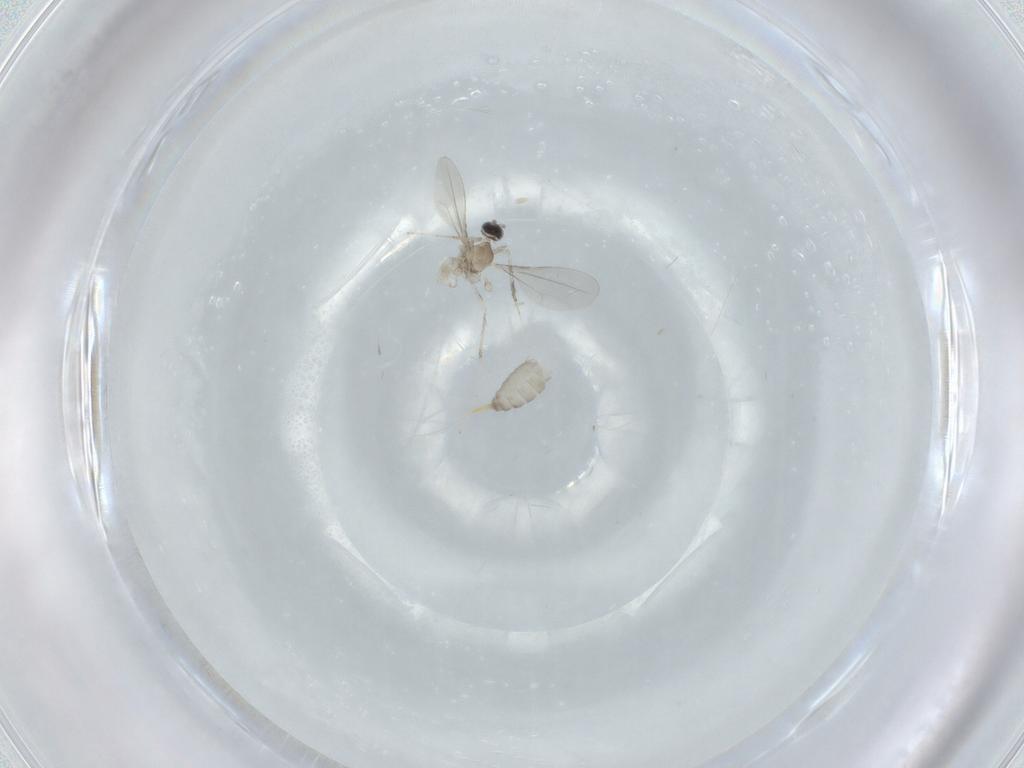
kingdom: Animalia
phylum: Arthropoda
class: Insecta
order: Diptera
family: Cecidomyiidae
